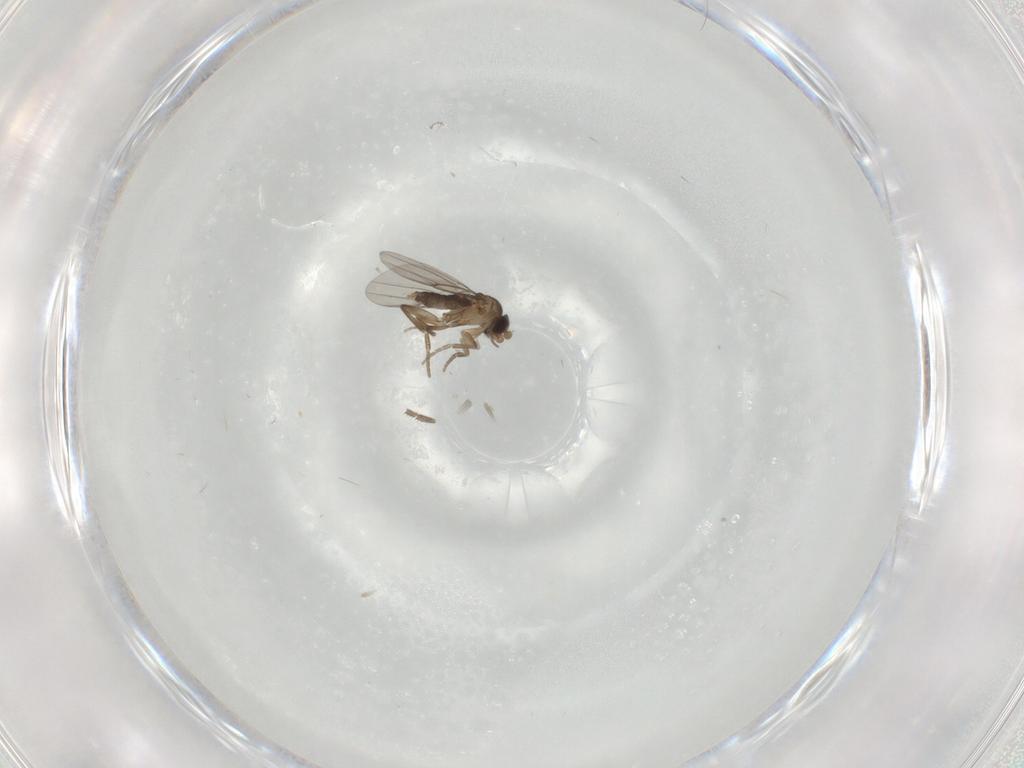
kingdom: Animalia
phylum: Arthropoda
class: Insecta
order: Diptera
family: Phoridae
